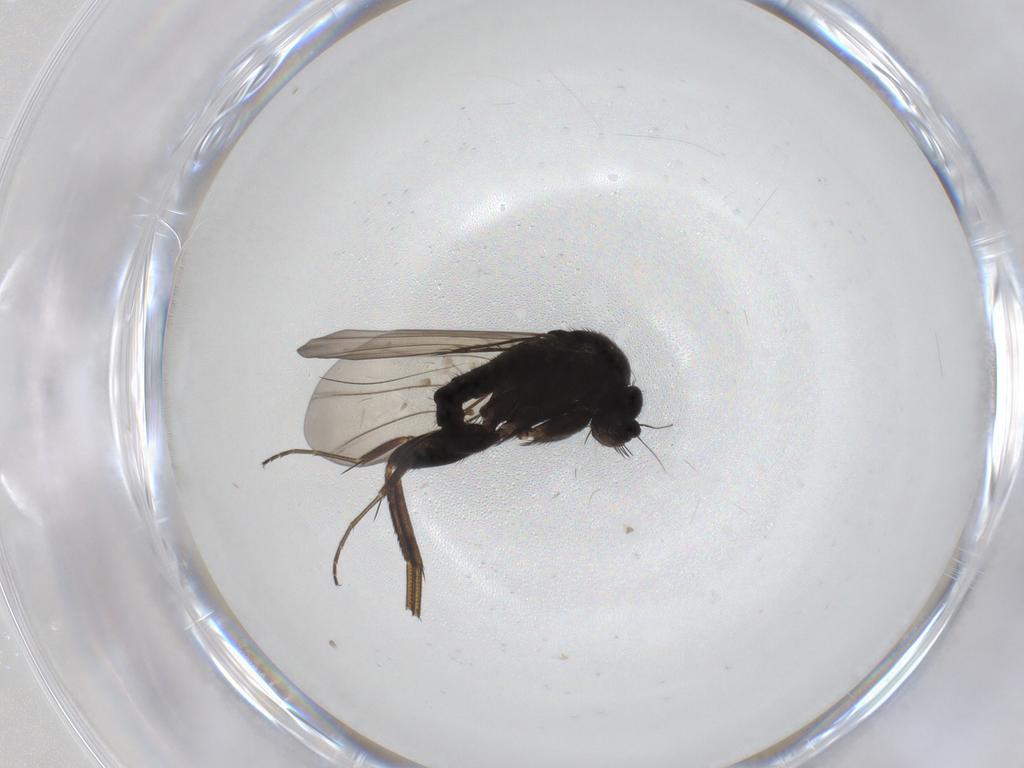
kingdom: Animalia
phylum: Arthropoda
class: Insecta
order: Diptera
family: Phoridae
